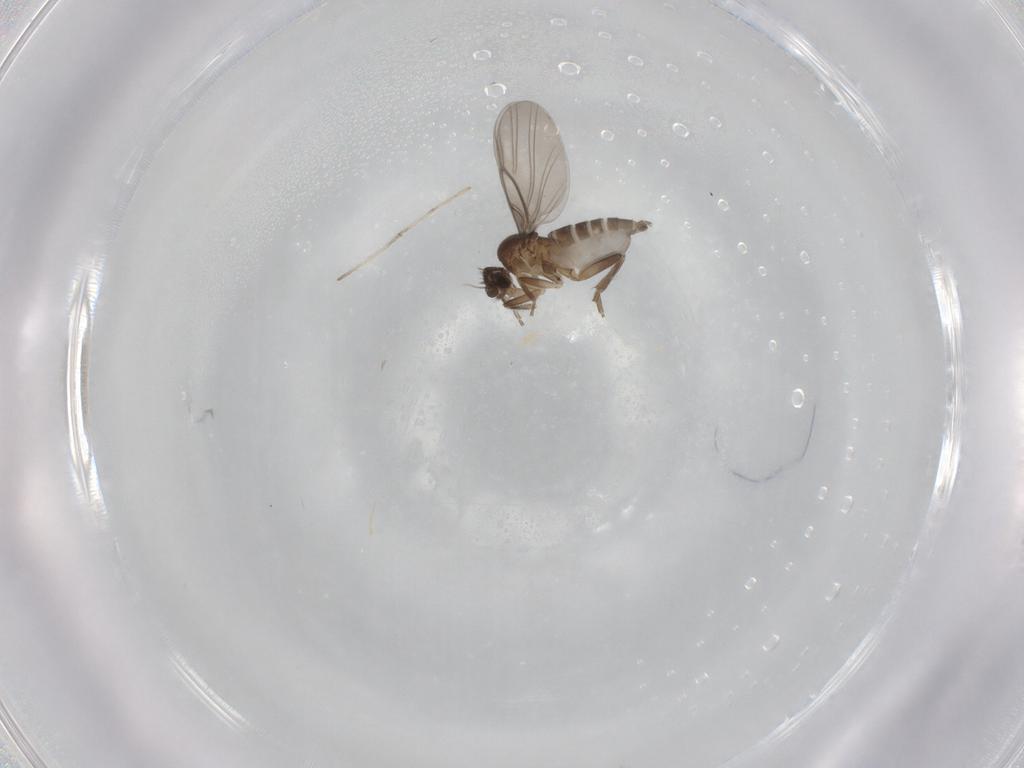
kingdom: Animalia
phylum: Arthropoda
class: Insecta
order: Diptera
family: Phoridae
